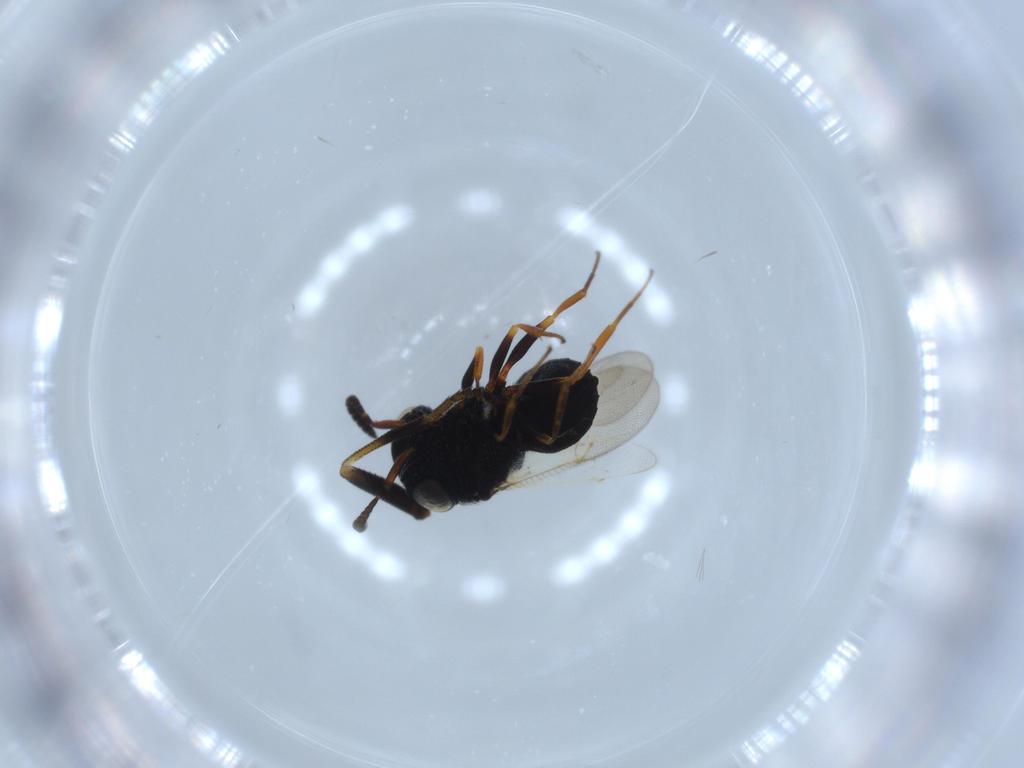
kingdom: Animalia
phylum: Arthropoda
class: Insecta
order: Hymenoptera
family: Scelionidae
